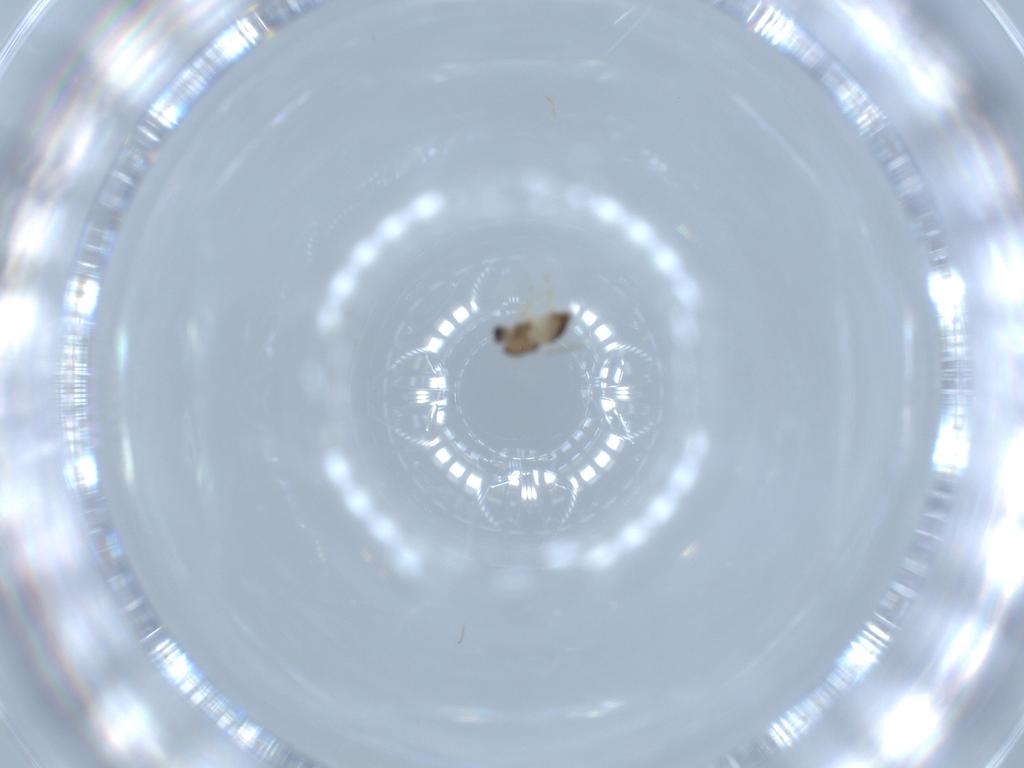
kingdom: Animalia
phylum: Arthropoda
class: Insecta
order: Diptera
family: Chironomidae
